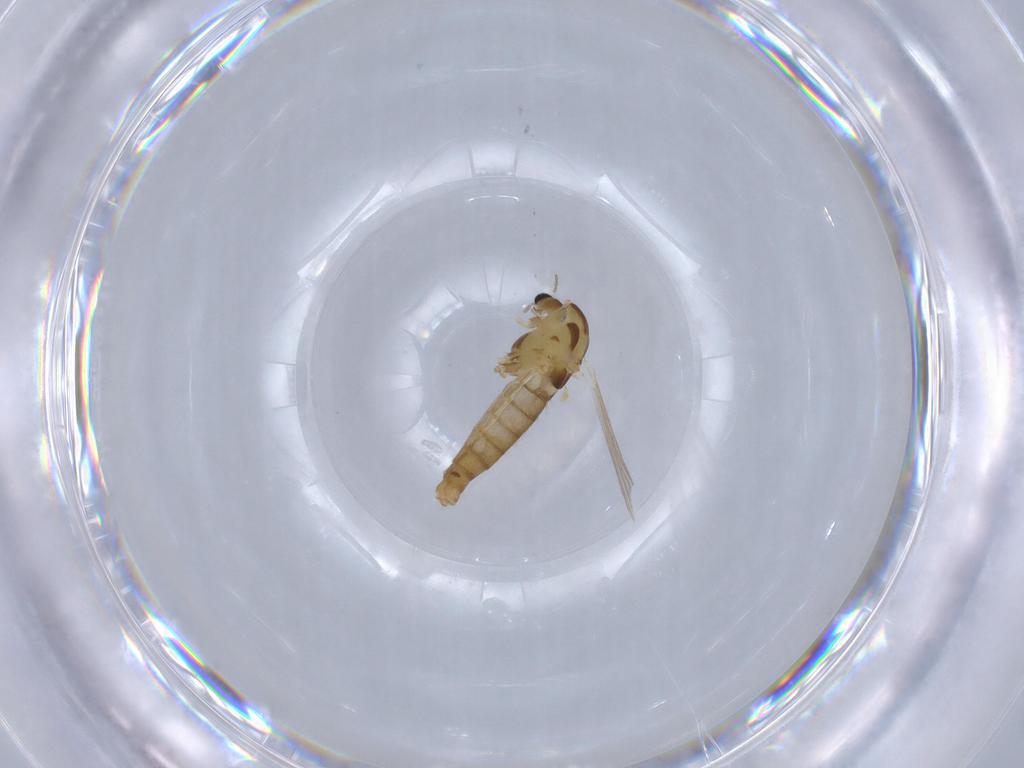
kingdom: Animalia
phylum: Arthropoda
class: Insecta
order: Diptera
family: Chironomidae
